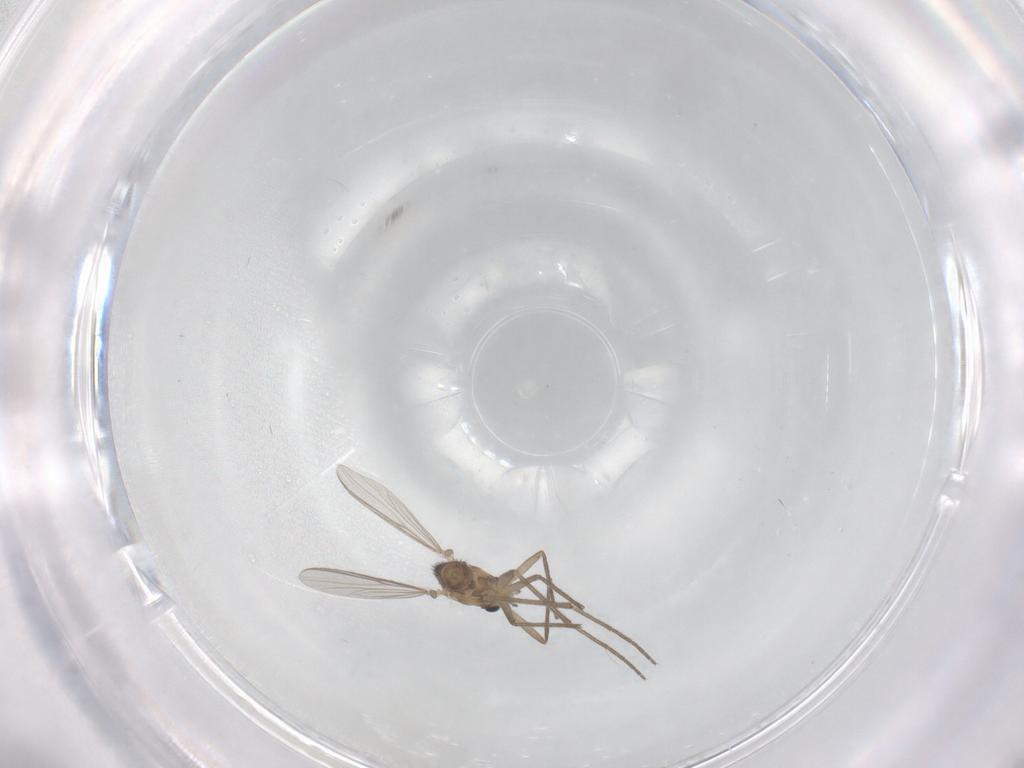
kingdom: Animalia
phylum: Arthropoda
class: Insecta
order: Diptera
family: Chironomidae
